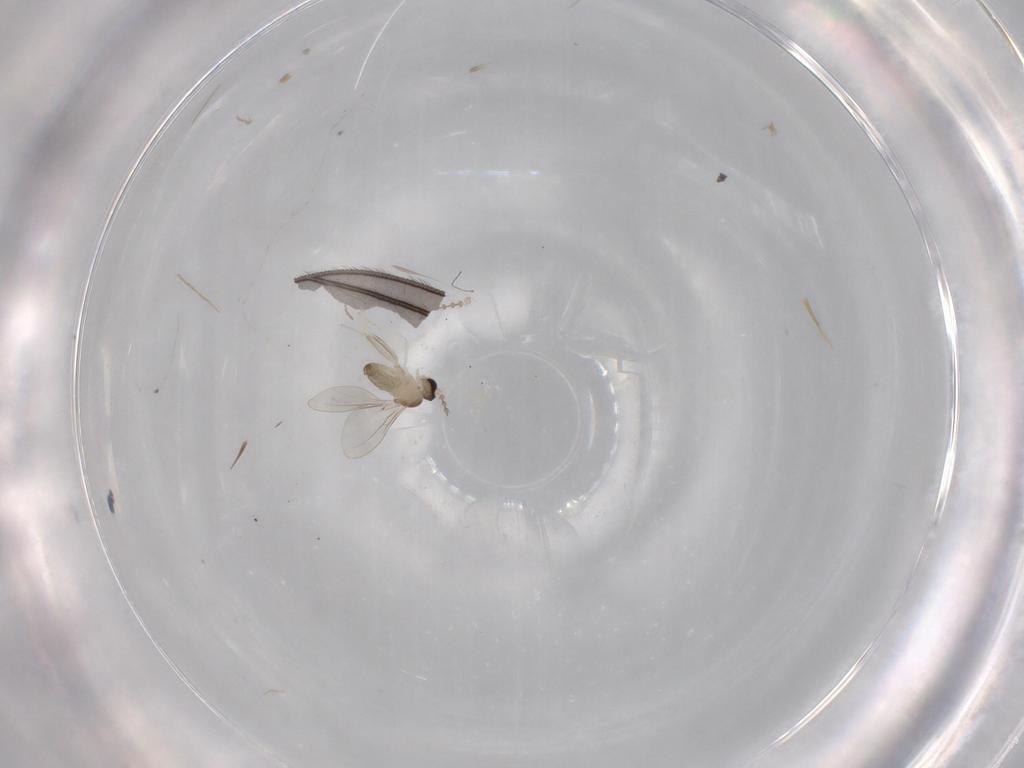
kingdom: Animalia
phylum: Arthropoda
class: Insecta
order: Diptera
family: Cecidomyiidae
